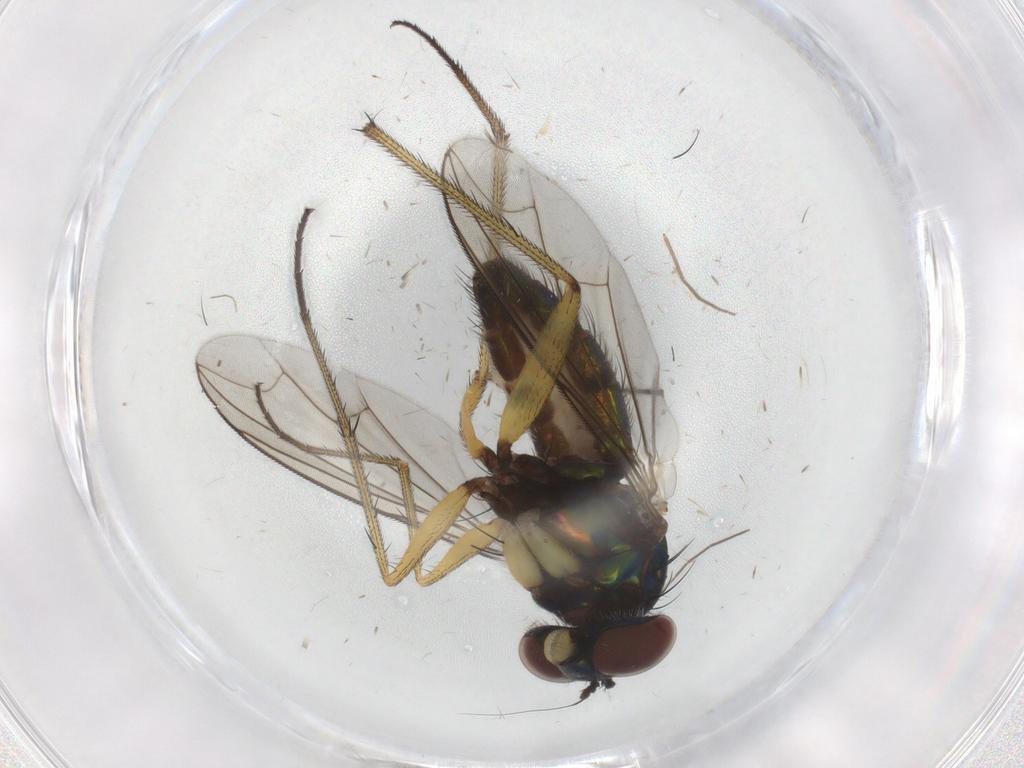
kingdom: Animalia
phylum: Arthropoda
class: Insecta
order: Diptera
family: Dolichopodidae
